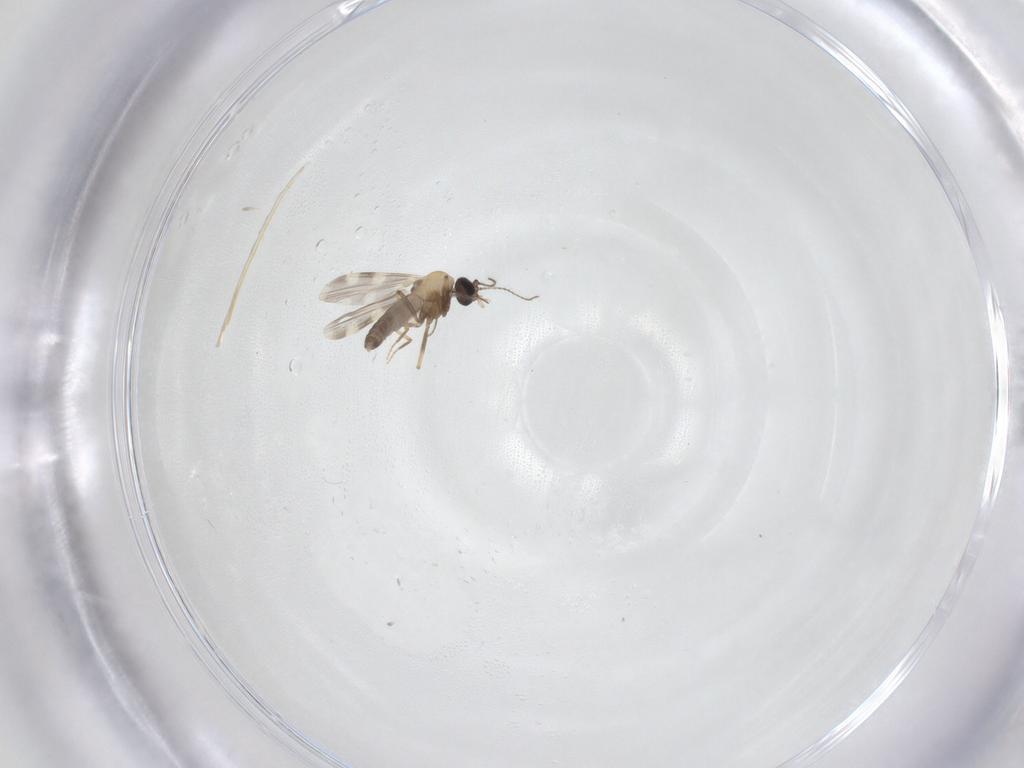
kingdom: Animalia
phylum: Arthropoda
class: Insecta
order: Diptera
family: Ceratopogonidae
